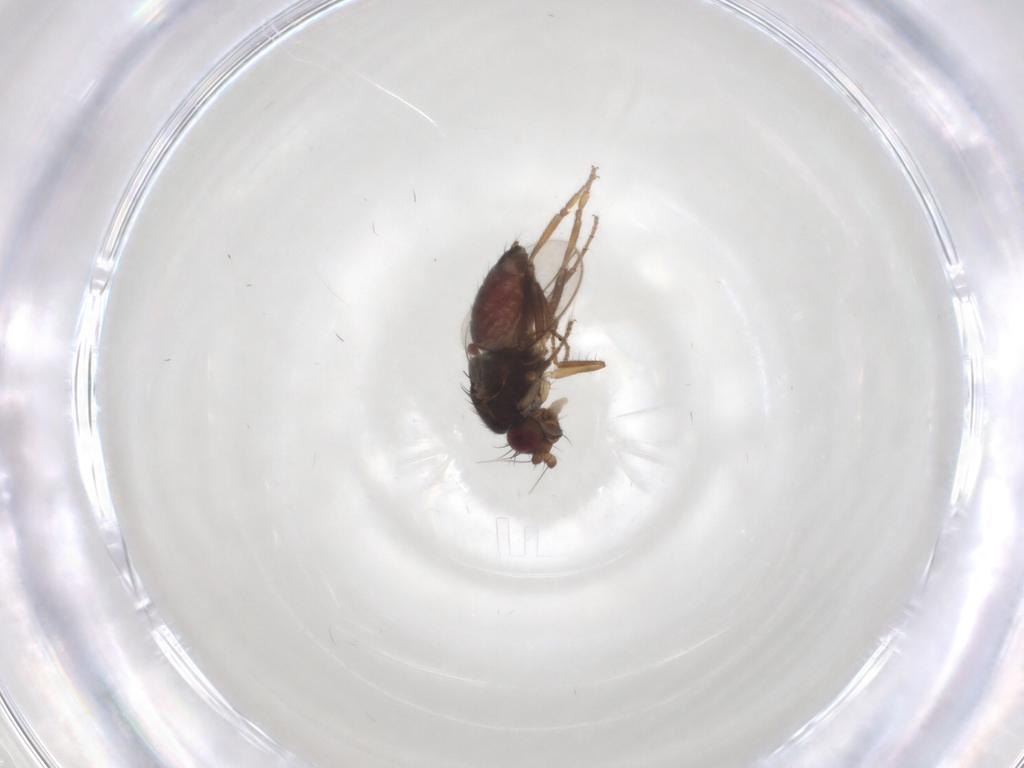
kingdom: Animalia
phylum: Arthropoda
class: Insecta
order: Diptera
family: Sphaeroceridae
